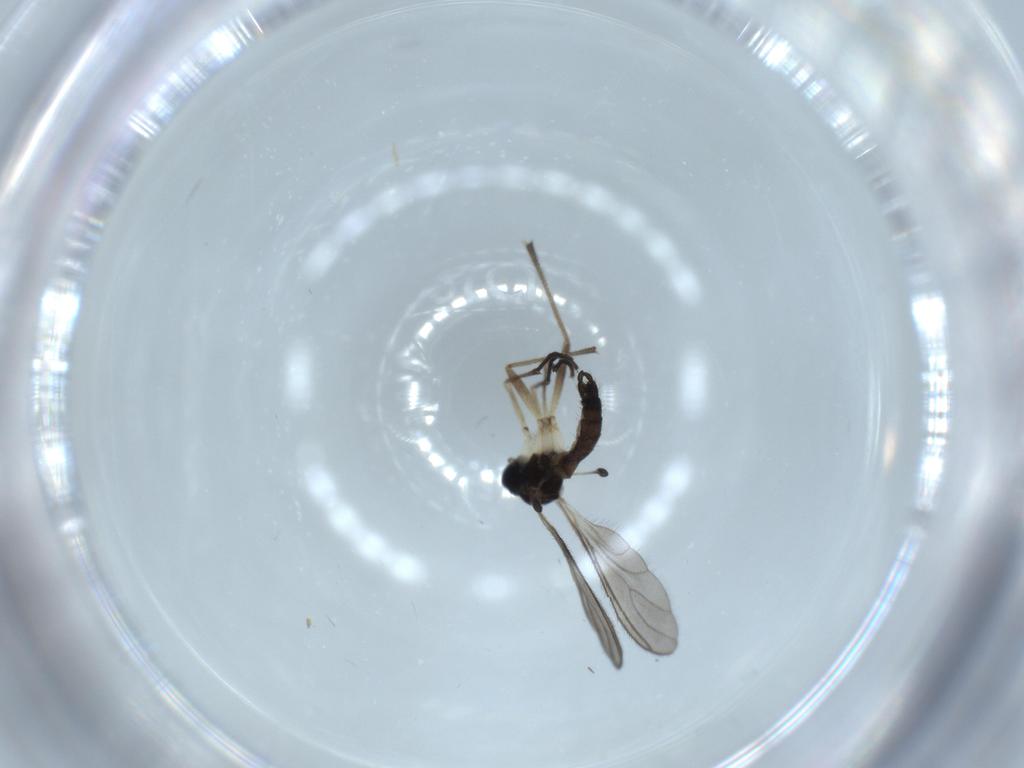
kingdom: Animalia
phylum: Arthropoda
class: Insecta
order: Diptera
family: Sciaridae
